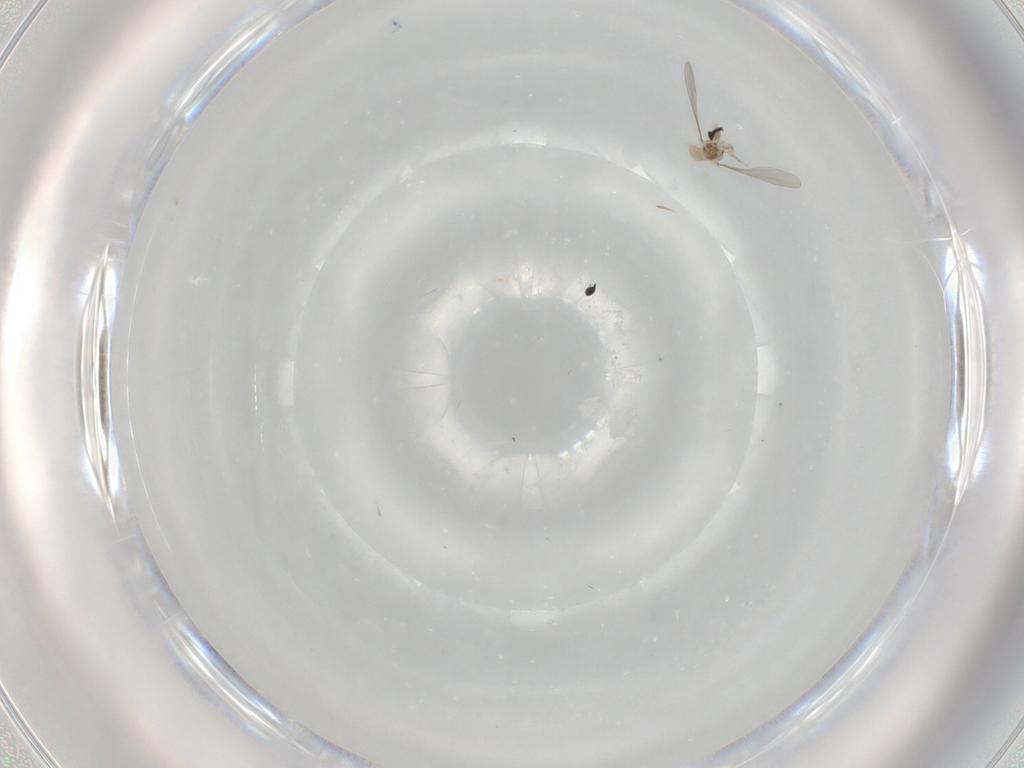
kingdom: Animalia
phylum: Arthropoda
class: Insecta
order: Diptera
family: Cecidomyiidae
